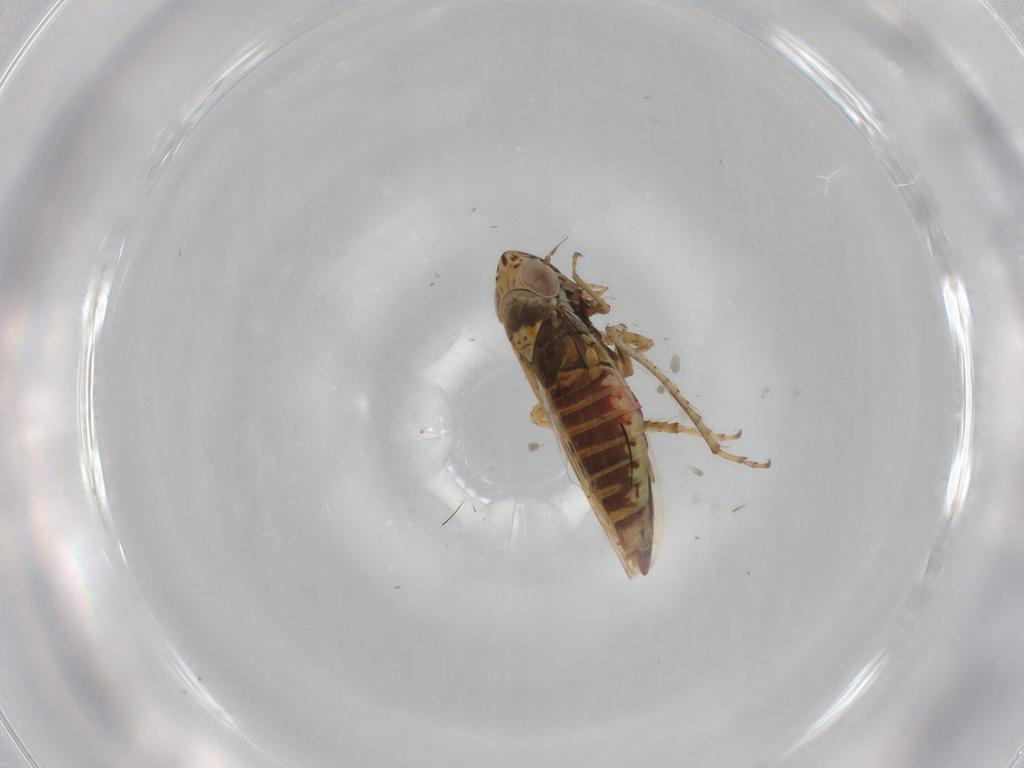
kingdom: Animalia
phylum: Arthropoda
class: Insecta
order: Hemiptera
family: Cicadellidae
